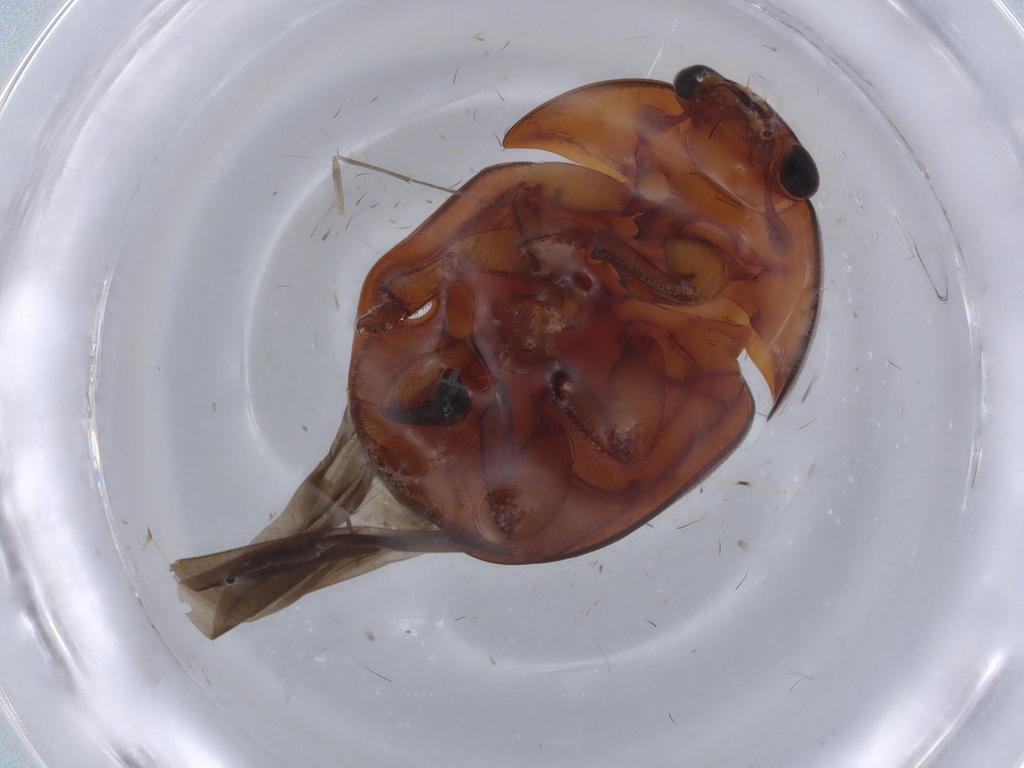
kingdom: Animalia
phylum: Arthropoda
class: Insecta
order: Coleoptera
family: Nitidulidae
